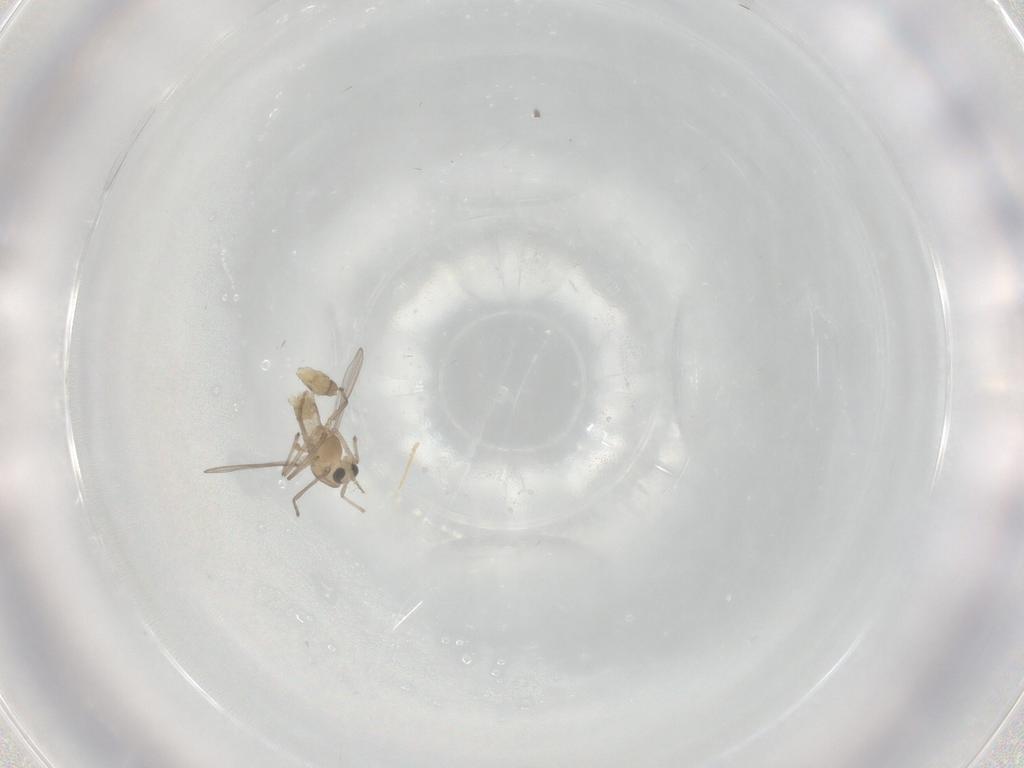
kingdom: Animalia
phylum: Arthropoda
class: Insecta
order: Diptera
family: Chironomidae
